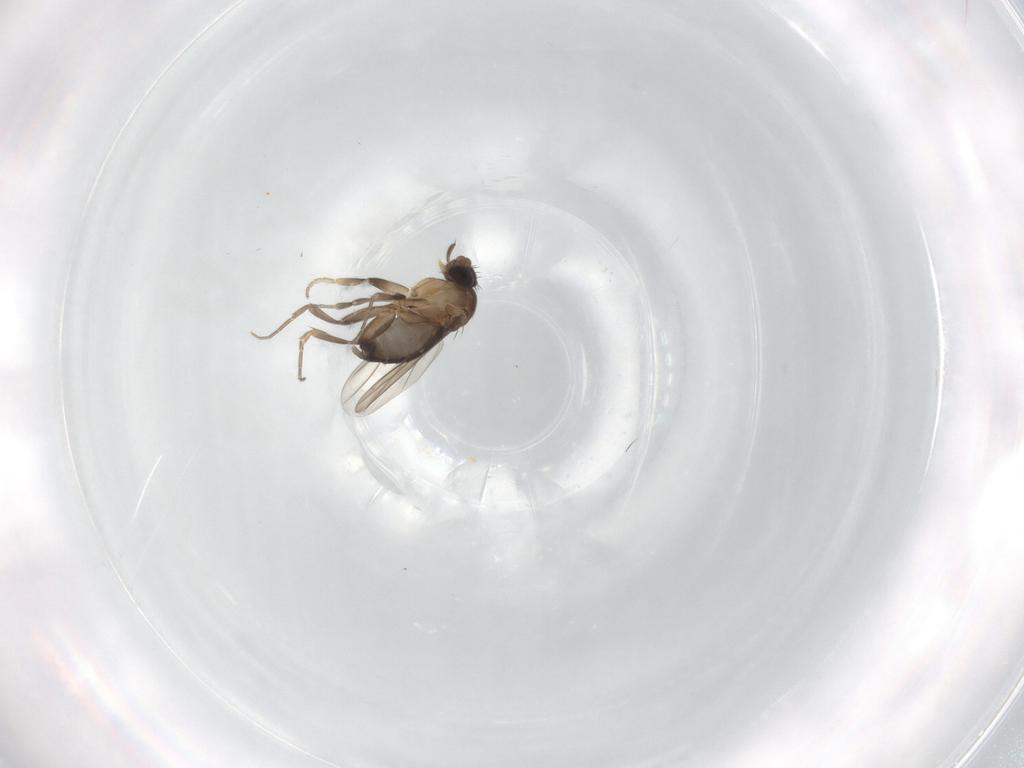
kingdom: Animalia
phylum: Arthropoda
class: Insecta
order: Diptera
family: Phoridae
